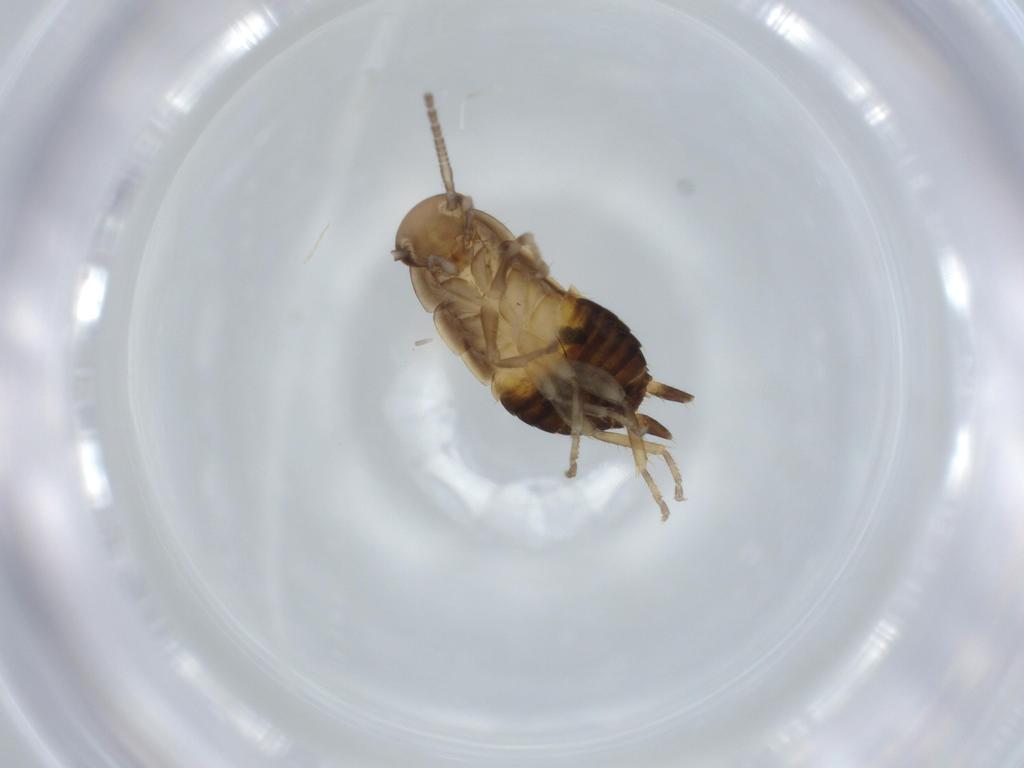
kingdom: Animalia
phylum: Arthropoda
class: Insecta
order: Blattodea
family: Ectobiidae
